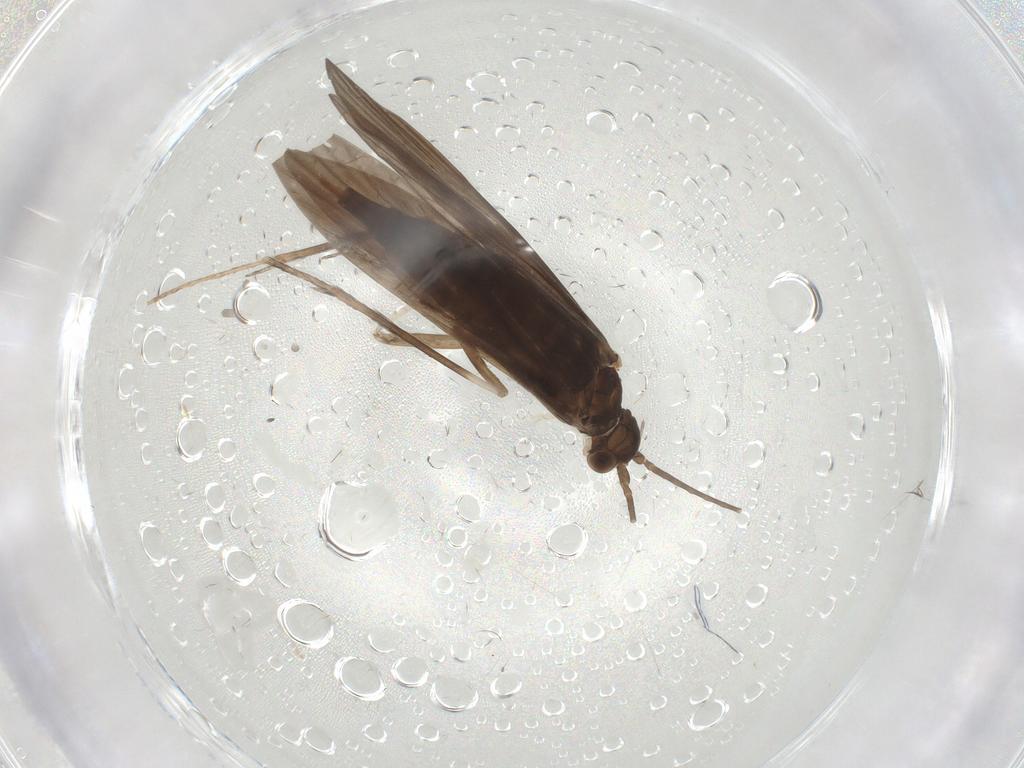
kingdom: Animalia
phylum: Arthropoda
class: Insecta
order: Trichoptera
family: Xiphocentronidae
